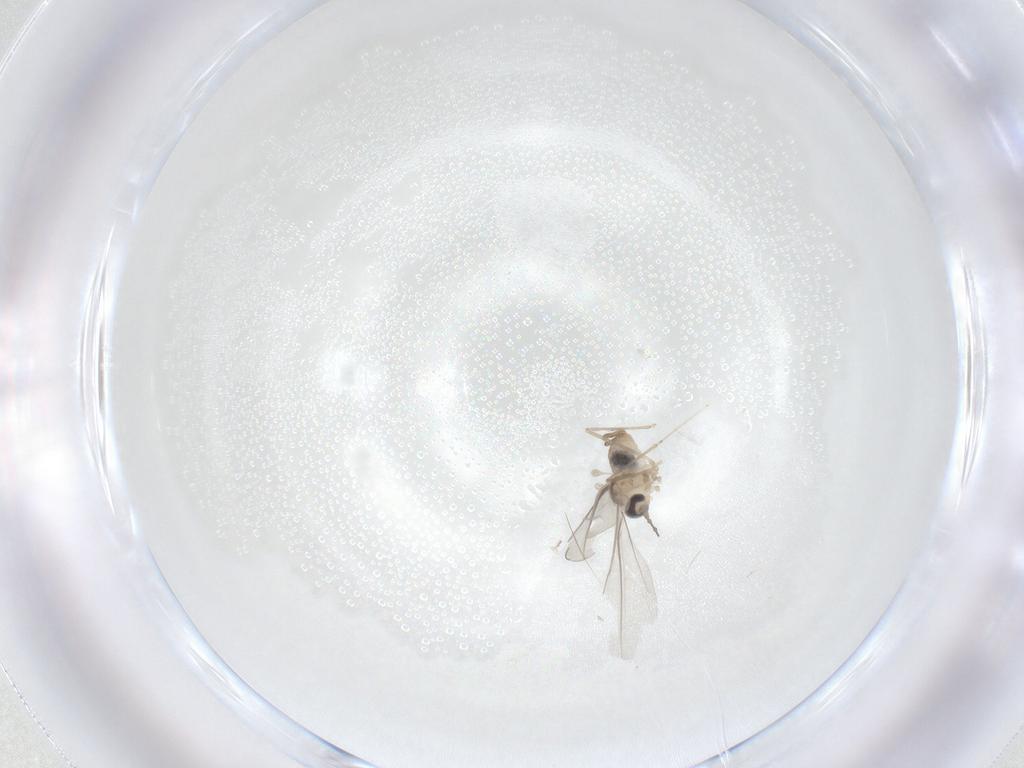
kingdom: Animalia
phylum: Arthropoda
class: Insecta
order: Diptera
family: Cecidomyiidae
